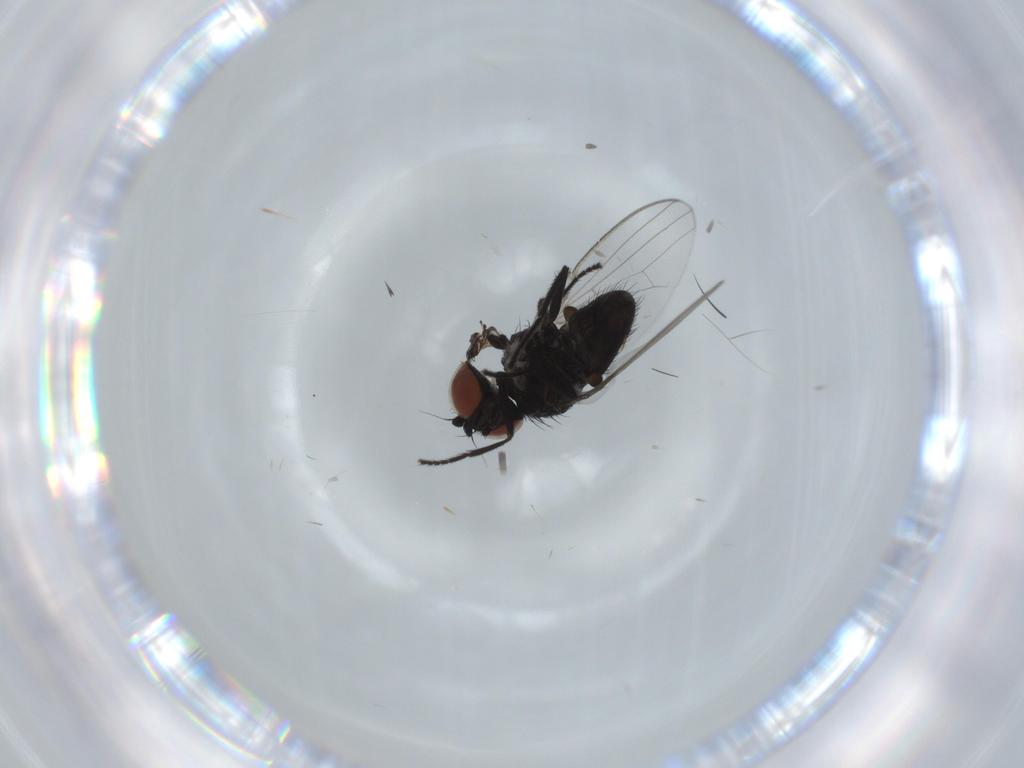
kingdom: Animalia
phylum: Arthropoda
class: Insecta
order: Diptera
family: Milichiidae
